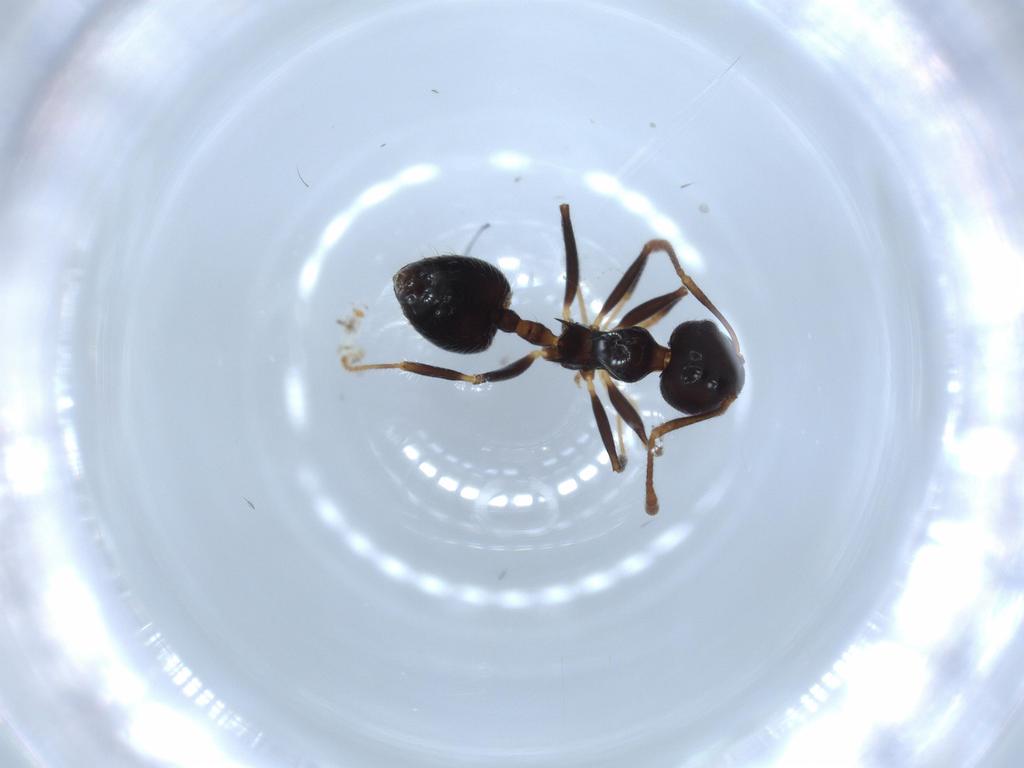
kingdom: Animalia
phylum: Arthropoda
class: Insecta
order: Hymenoptera
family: Formicidae
